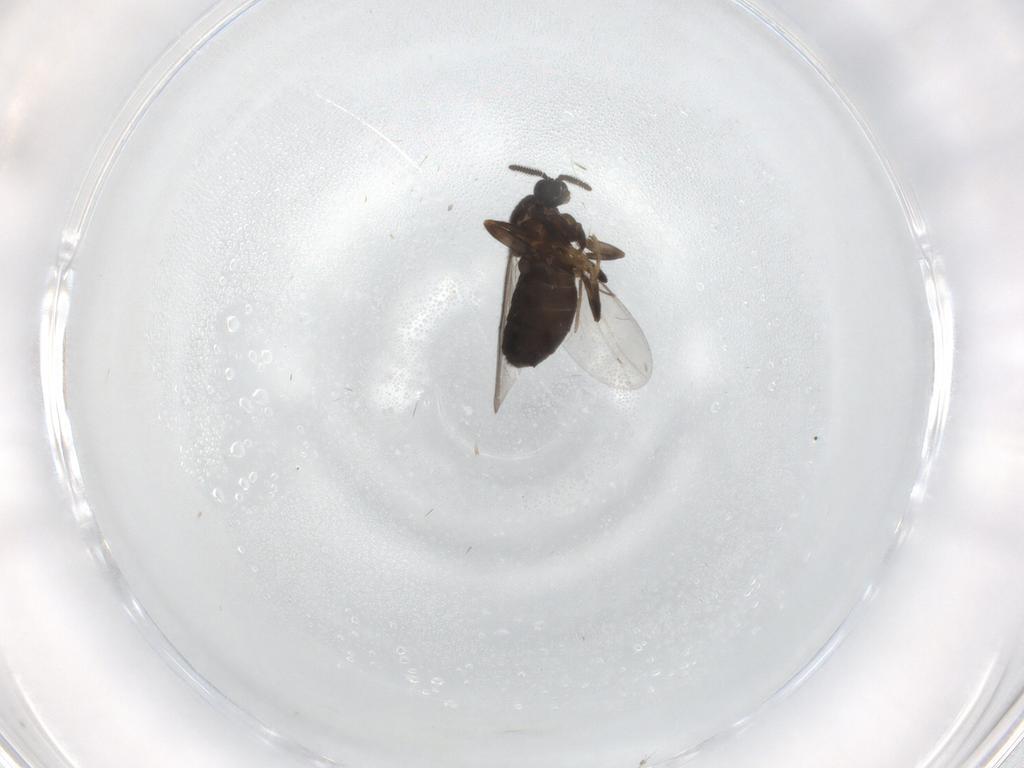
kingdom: Animalia
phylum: Arthropoda
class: Insecta
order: Diptera
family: Scatopsidae
